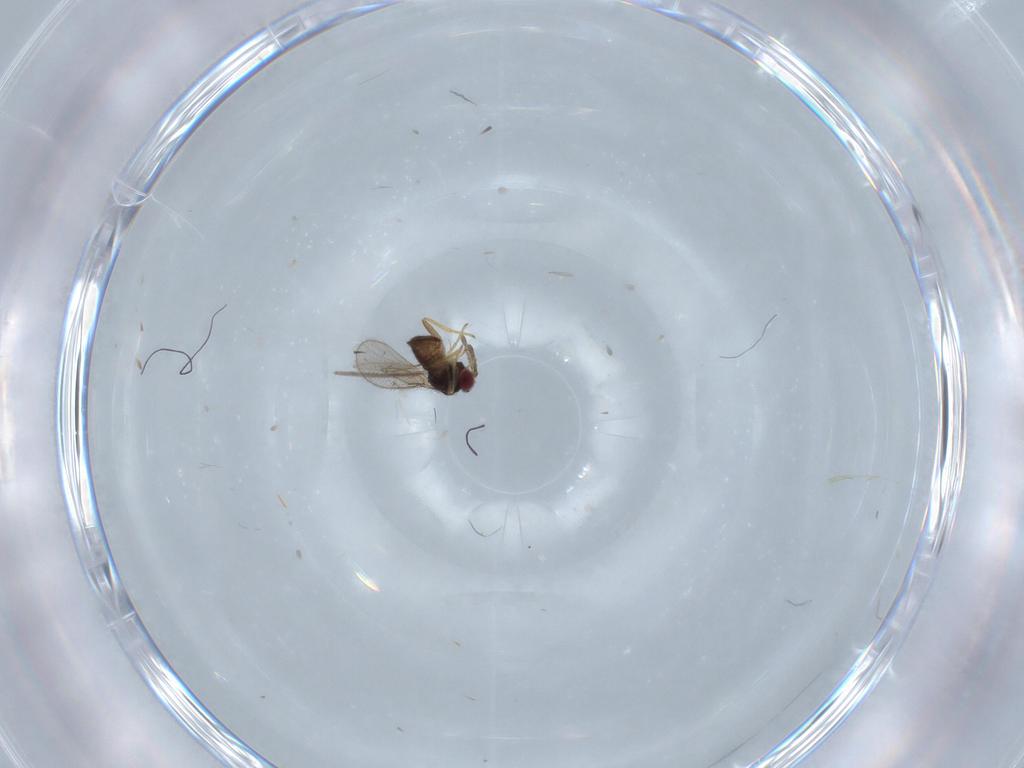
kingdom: Animalia
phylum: Arthropoda
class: Insecta
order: Hymenoptera
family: Tetracampidae
